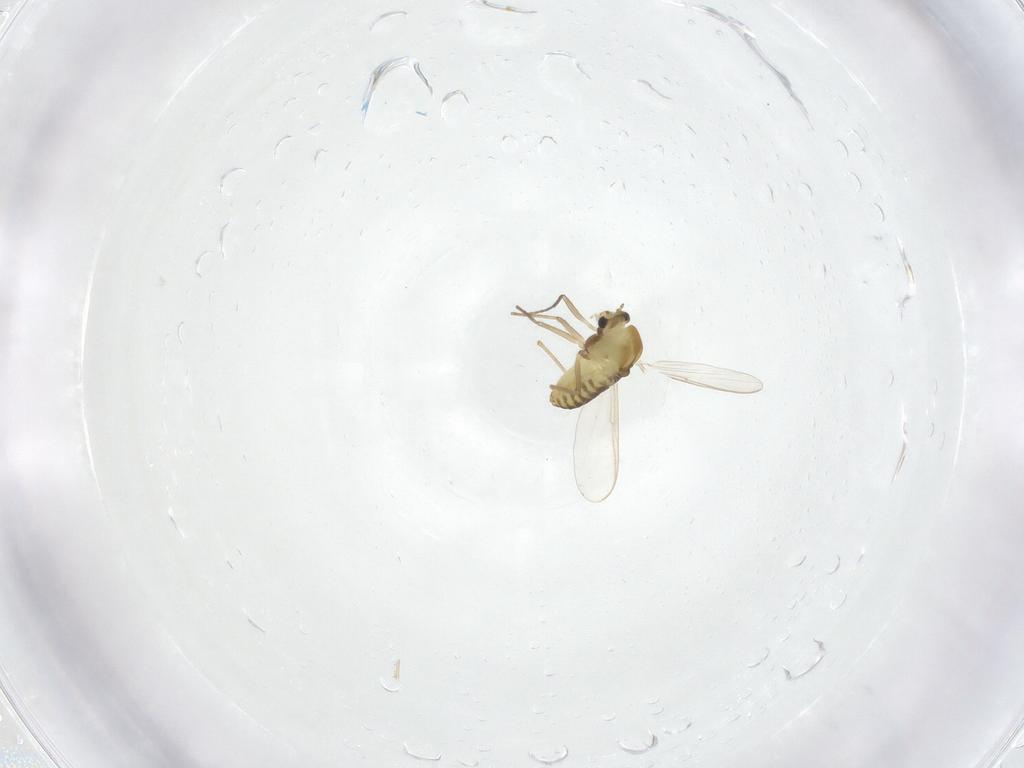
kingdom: Animalia
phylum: Arthropoda
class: Insecta
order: Diptera
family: Chironomidae
